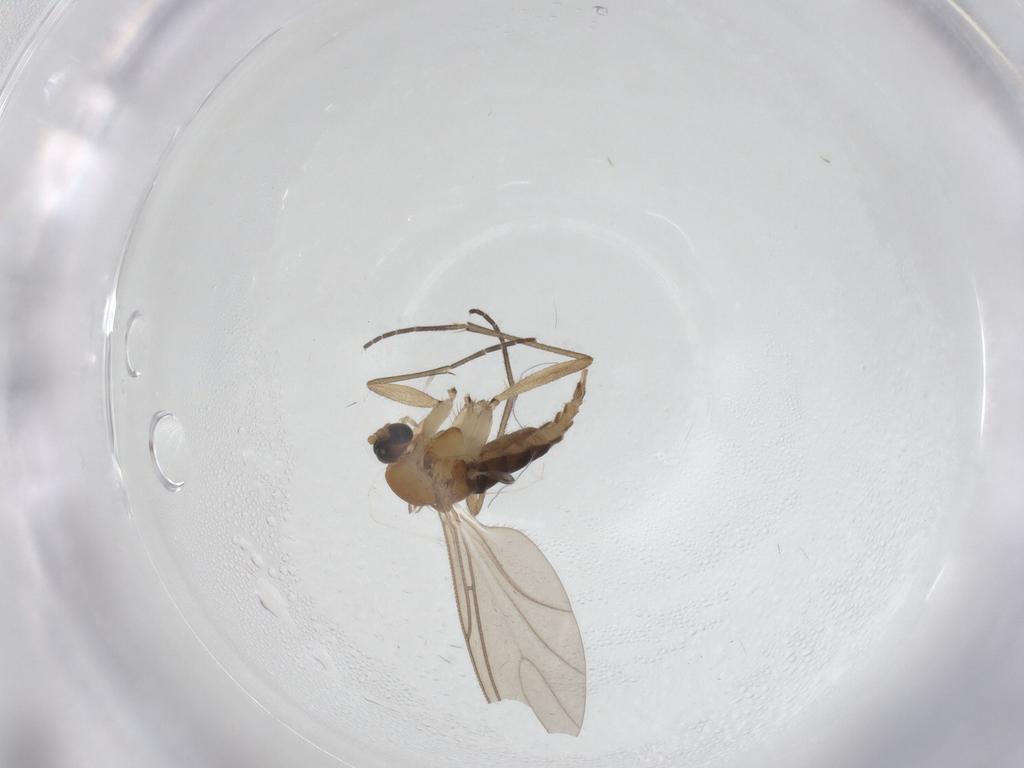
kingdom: Animalia
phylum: Arthropoda
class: Insecta
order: Diptera
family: Sciaridae
